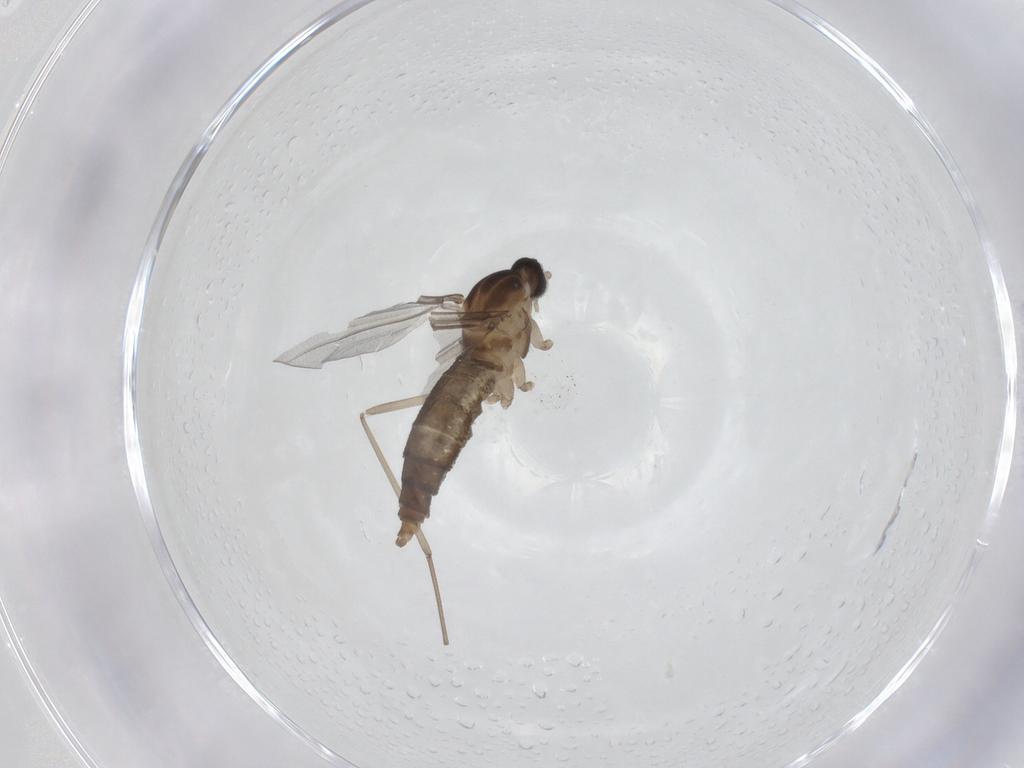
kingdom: Animalia
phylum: Arthropoda
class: Insecta
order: Diptera
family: Cecidomyiidae
